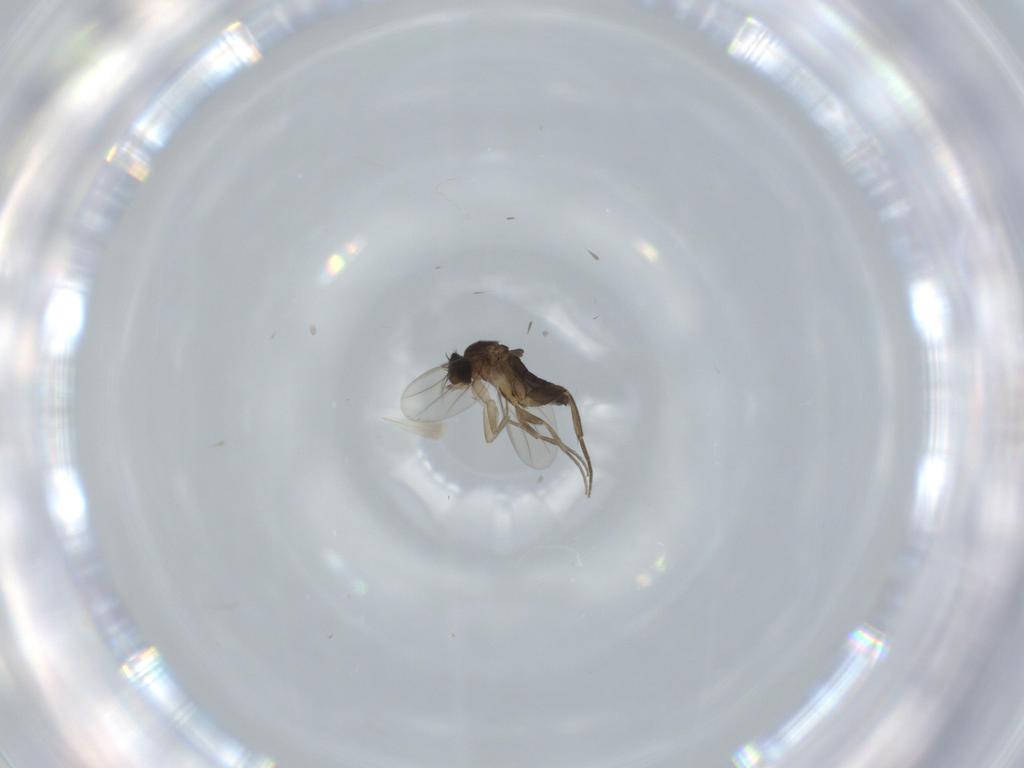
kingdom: Animalia
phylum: Arthropoda
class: Insecta
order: Diptera
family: Phoridae
